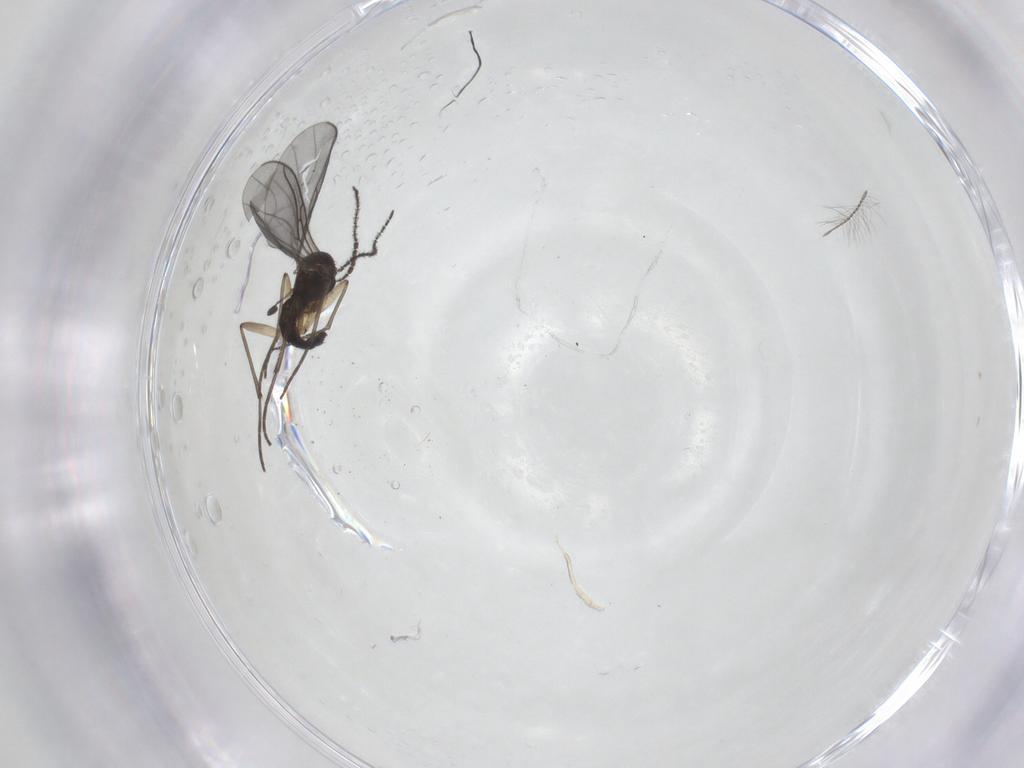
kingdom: Animalia
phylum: Arthropoda
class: Insecta
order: Diptera
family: Psychodidae
